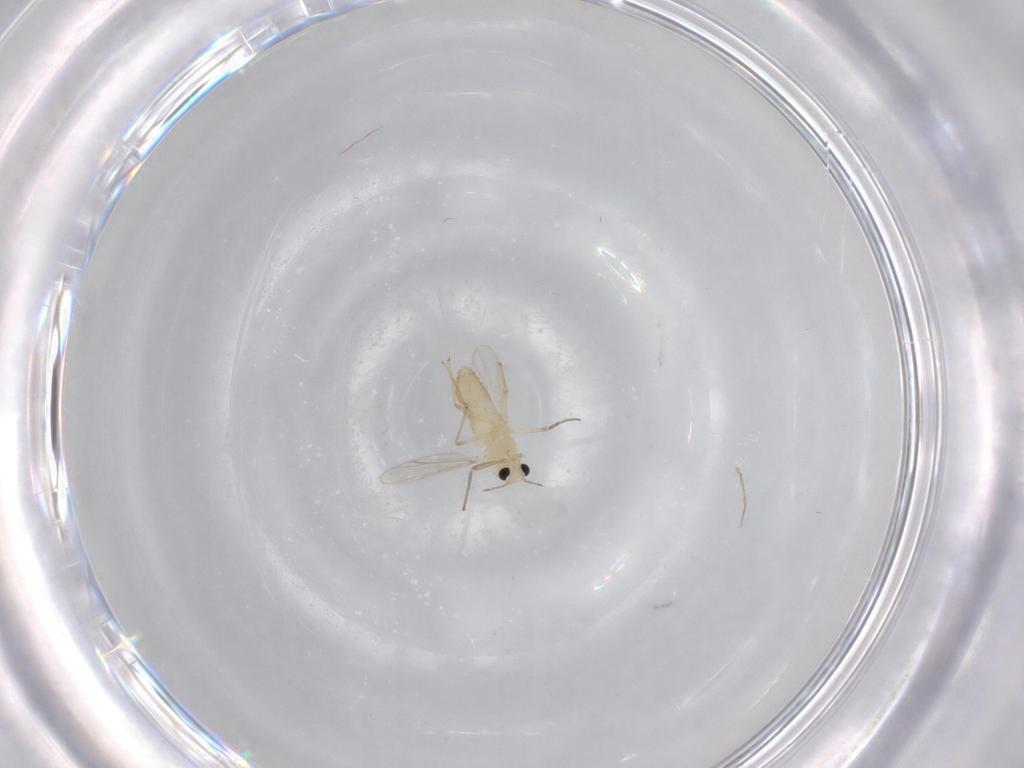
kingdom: Animalia
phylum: Arthropoda
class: Insecta
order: Diptera
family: Chironomidae
